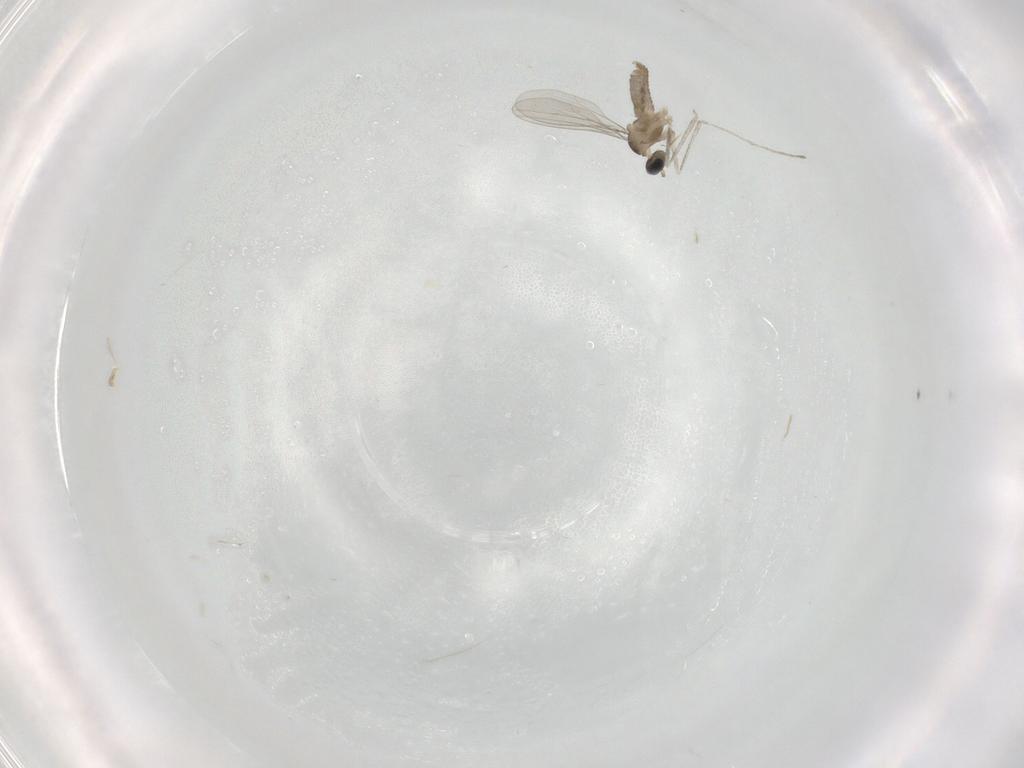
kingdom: Animalia
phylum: Arthropoda
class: Insecta
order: Diptera
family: Cecidomyiidae
